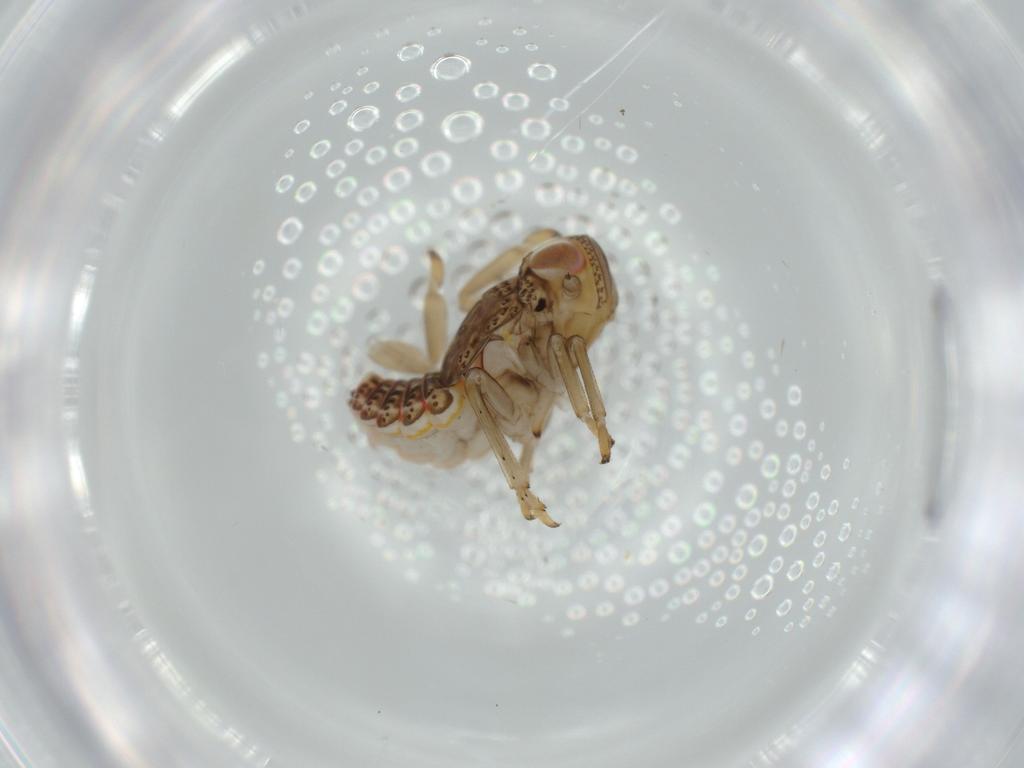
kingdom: Animalia
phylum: Arthropoda
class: Insecta
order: Hemiptera
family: Issidae
